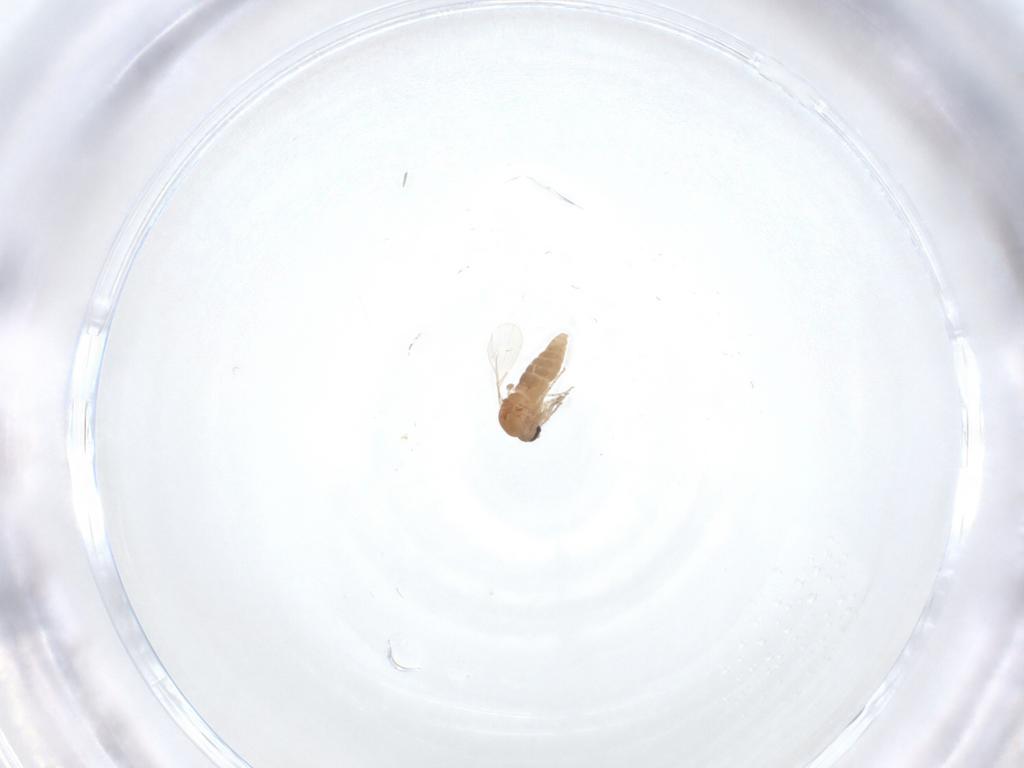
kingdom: Animalia
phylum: Arthropoda
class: Insecta
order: Diptera
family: Ceratopogonidae
